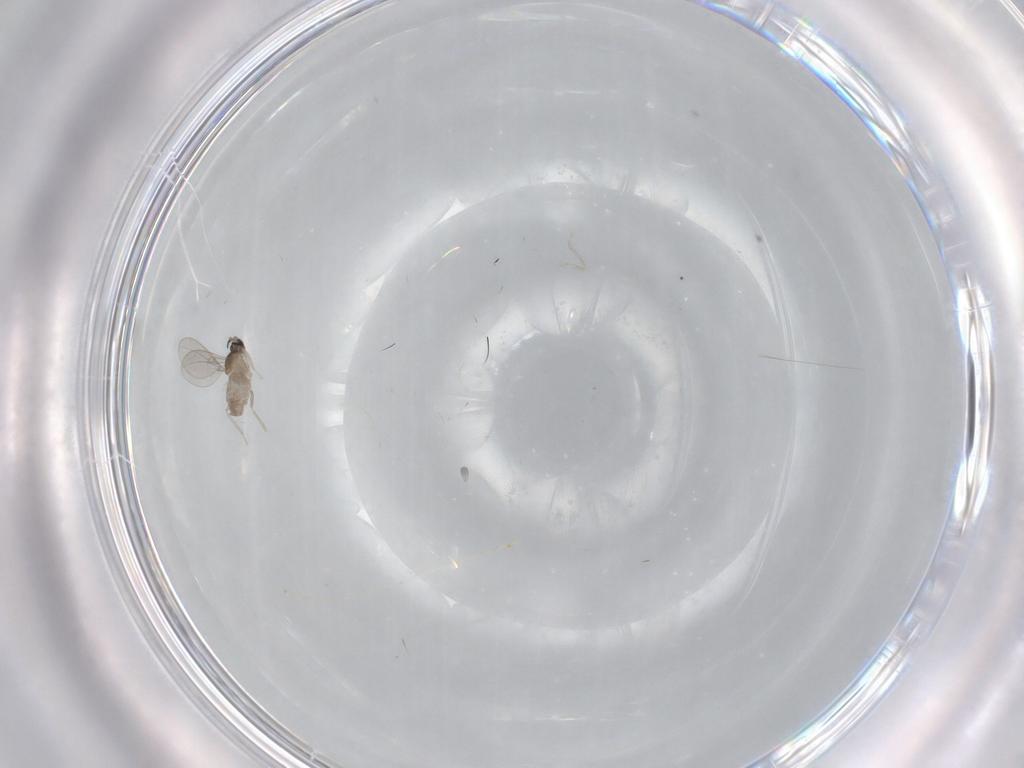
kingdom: Animalia
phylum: Arthropoda
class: Insecta
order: Diptera
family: Cecidomyiidae
